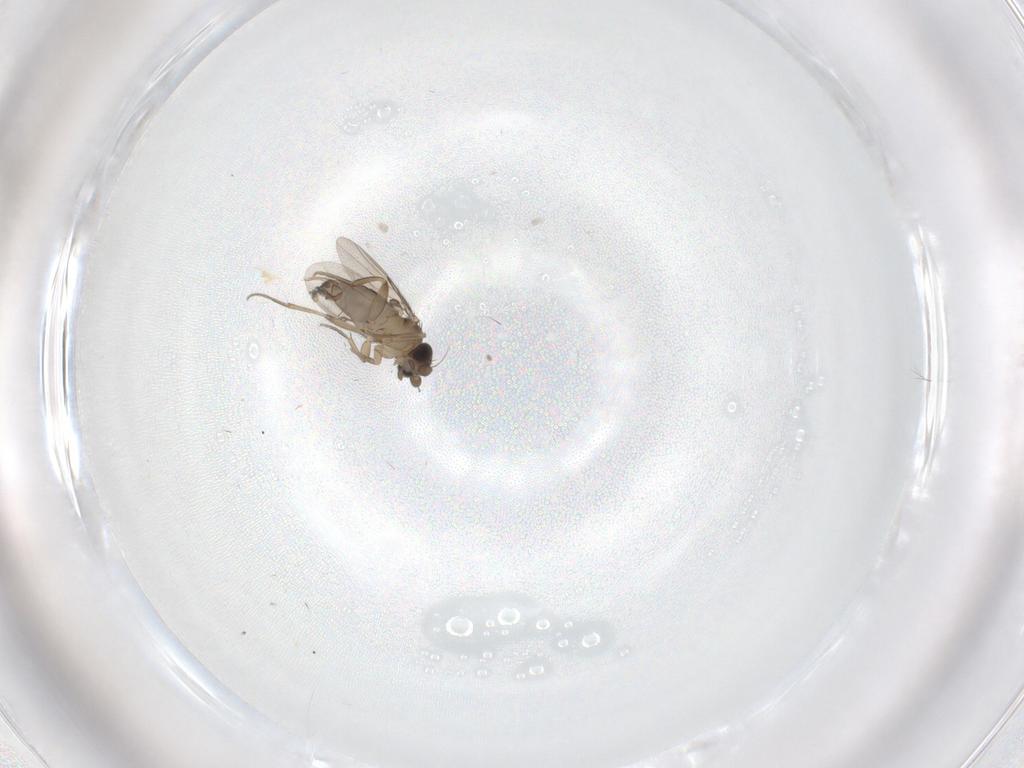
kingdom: Animalia
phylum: Arthropoda
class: Insecta
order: Diptera
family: Phoridae
